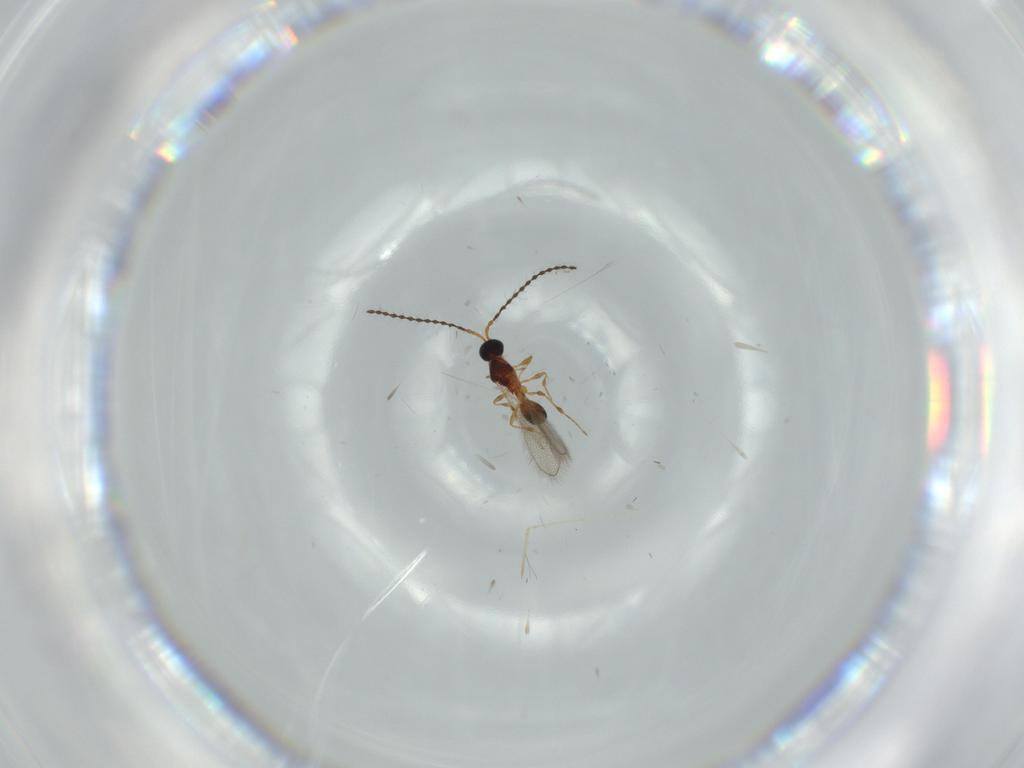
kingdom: Animalia
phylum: Arthropoda
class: Insecta
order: Hymenoptera
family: Diapriidae
